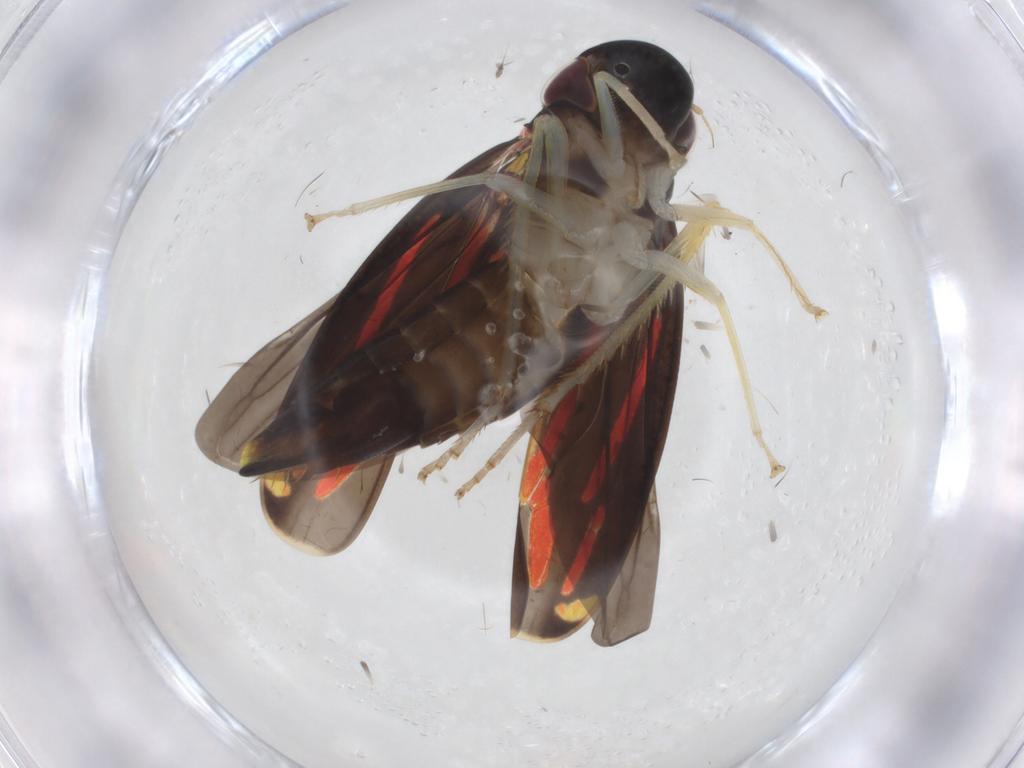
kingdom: Animalia
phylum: Arthropoda
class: Insecta
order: Hemiptera
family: Cicadellidae
